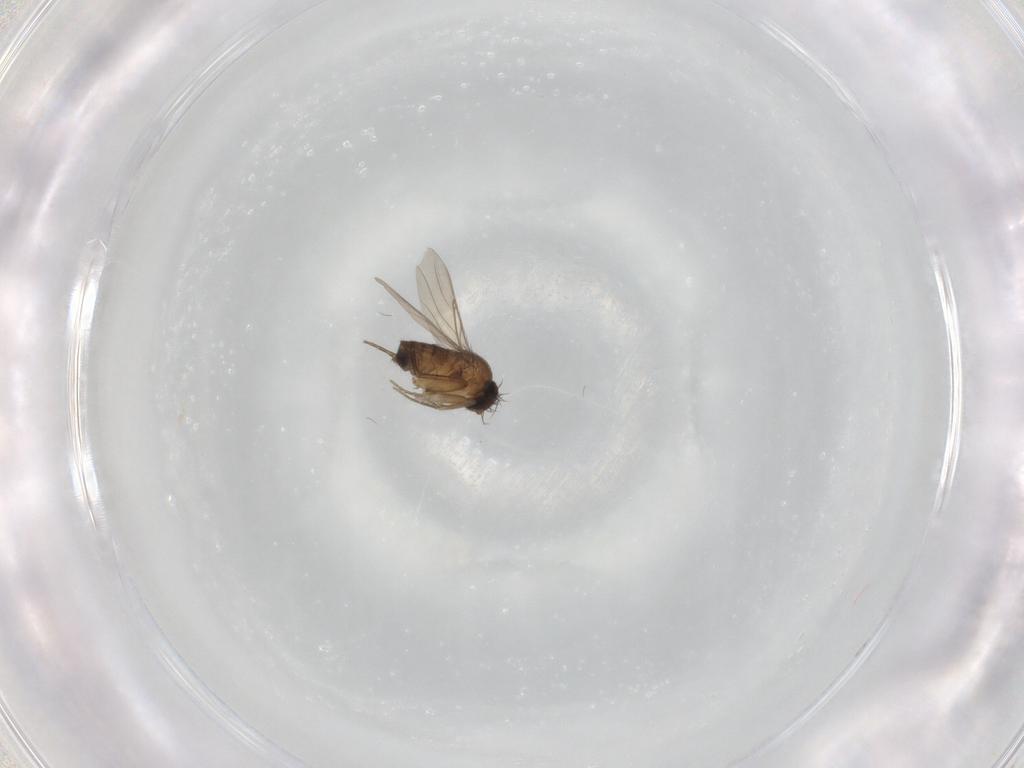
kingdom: Animalia
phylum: Arthropoda
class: Insecta
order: Diptera
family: Phoridae
